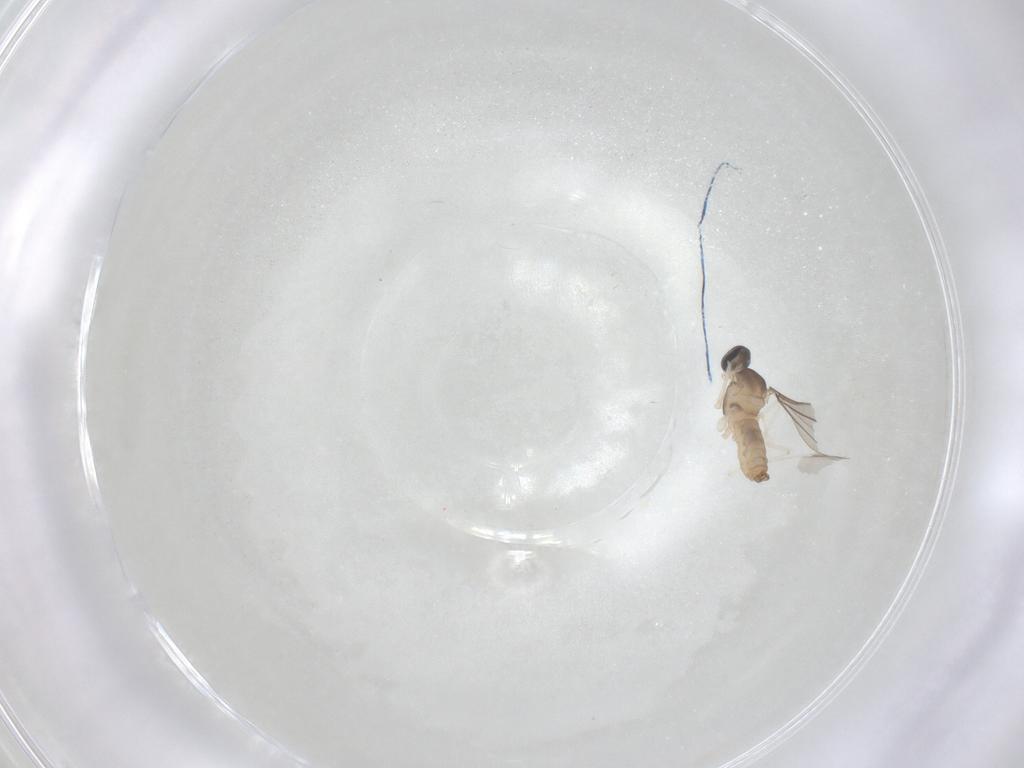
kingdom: Animalia
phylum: Arthropoda
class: Insecta
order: Diptera
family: Cecidomyiidae
